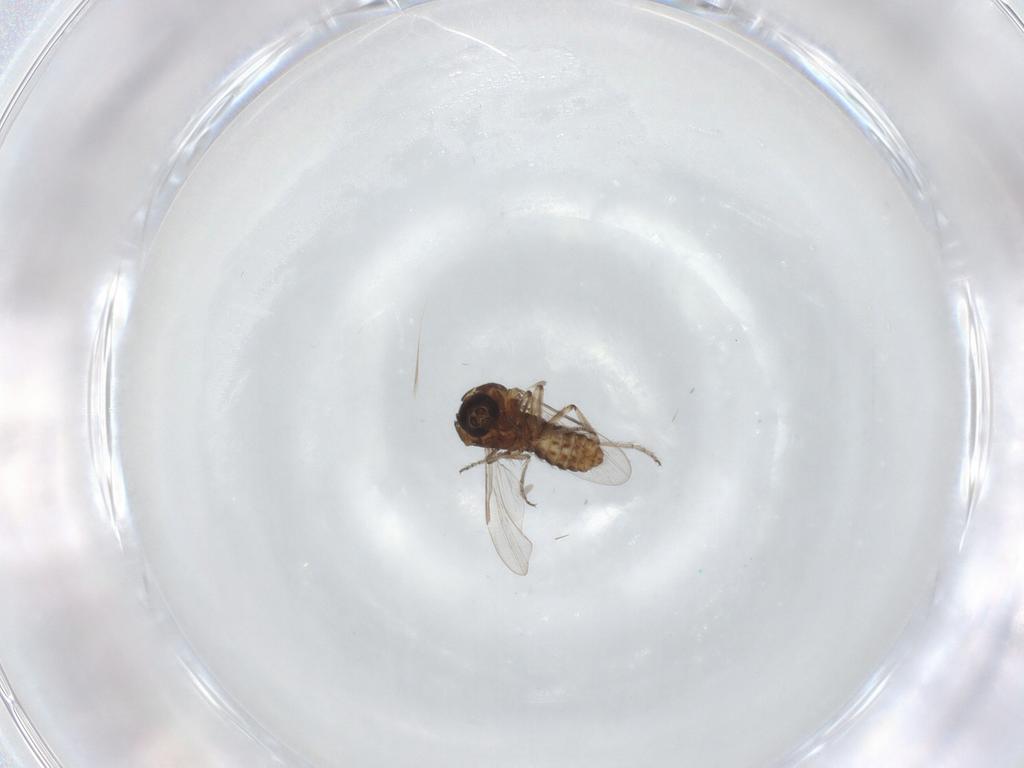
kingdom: Animalia
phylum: Arthropoda
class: Insecta
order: Diptera
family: Ceratopogonidae
